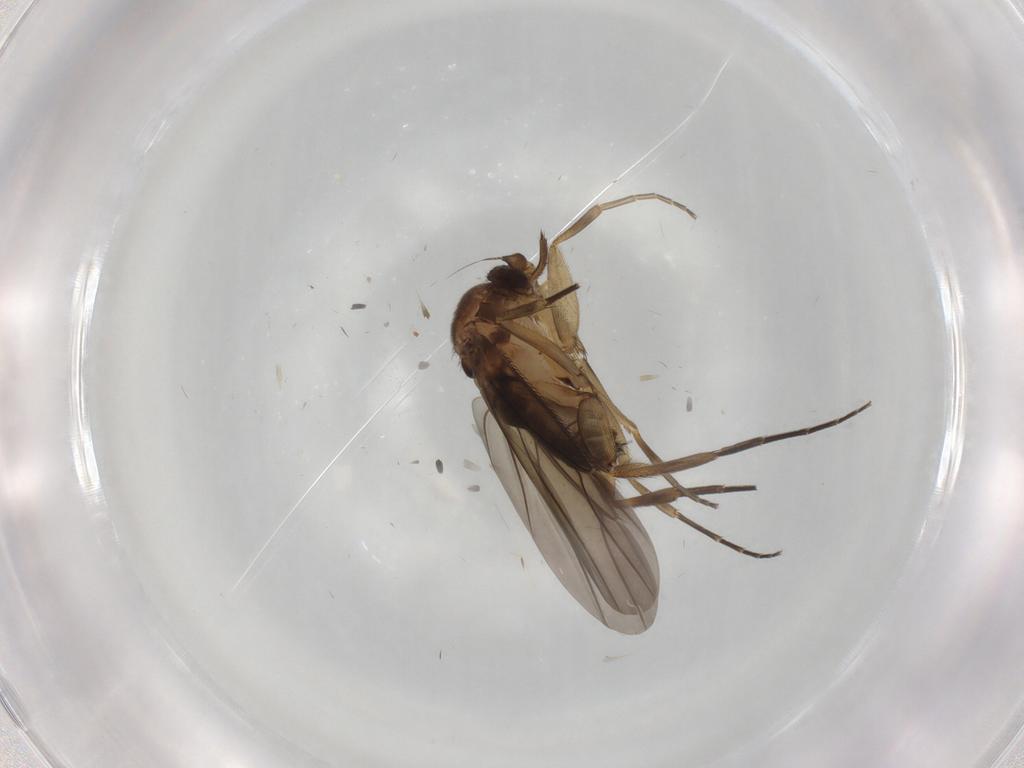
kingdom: Animalia
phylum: Arthropoda
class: Insecta
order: Diptera
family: Phoridae
